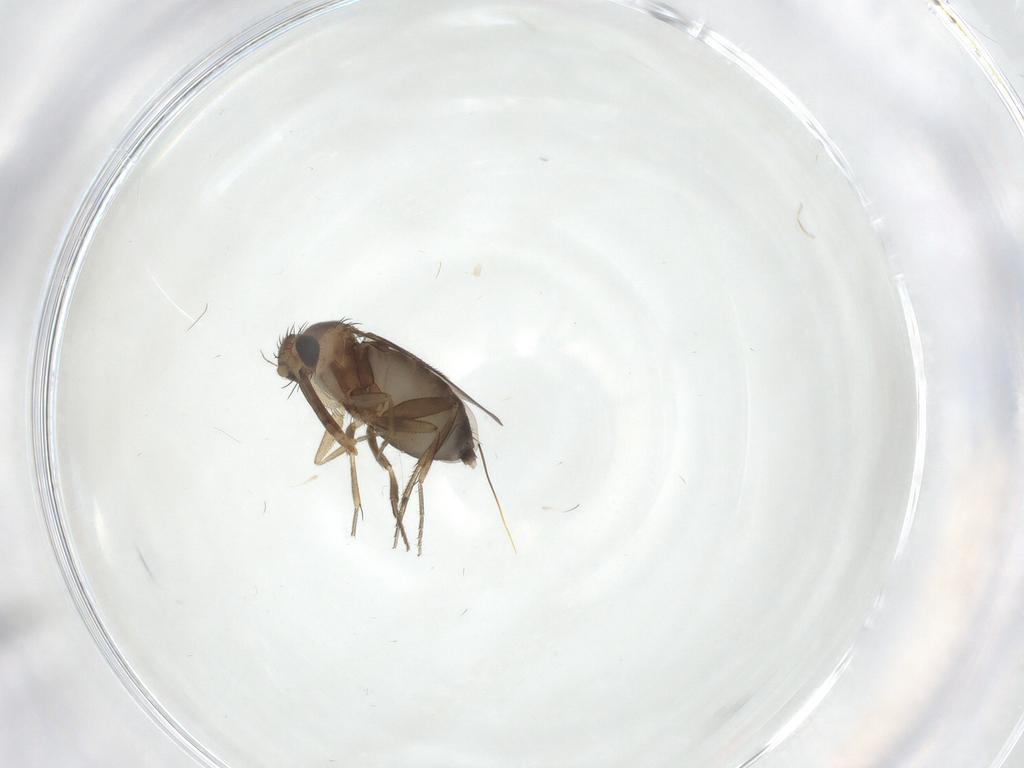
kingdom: Animalia
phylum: Arthropoda
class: Insecta
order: Diptera
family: Phoridae
